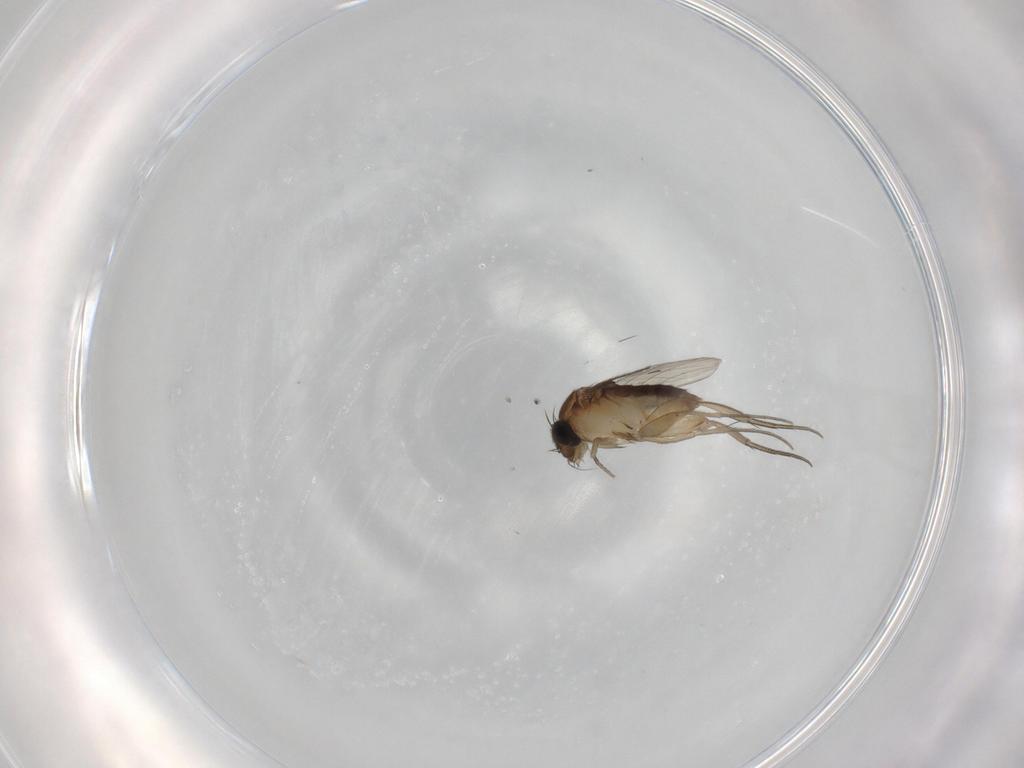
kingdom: Animalia
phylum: Arthropoda
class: Insecta
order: Diptera
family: Phoridae
